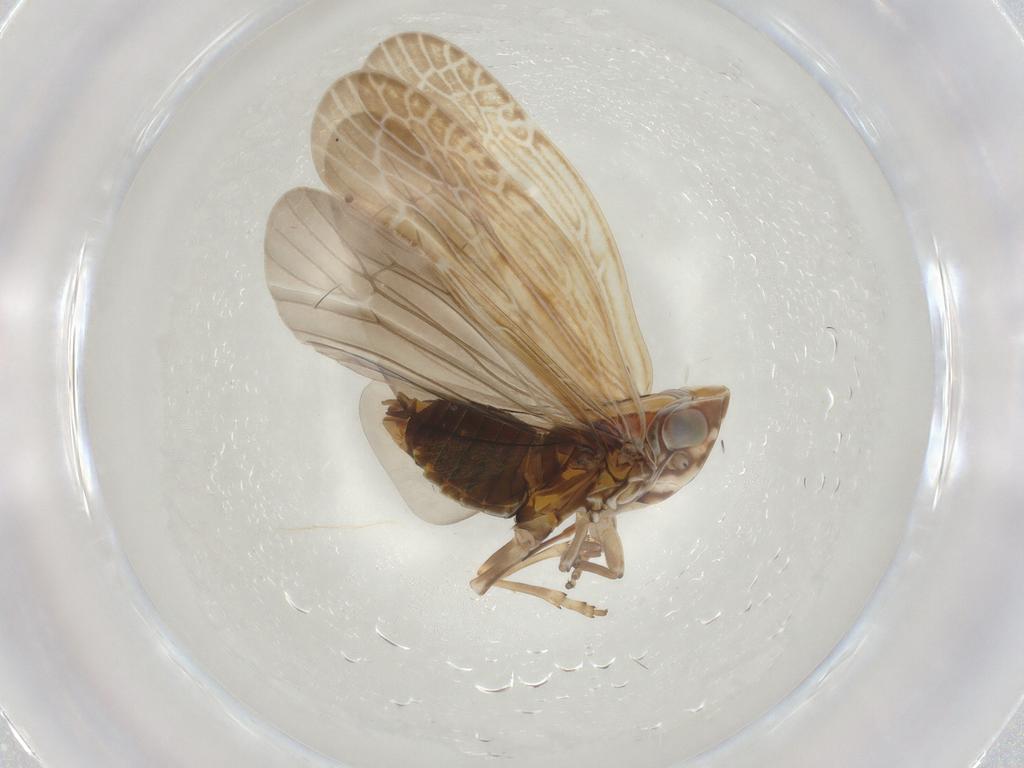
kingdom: Animalia
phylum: Arthropoda
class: Insecta
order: Hemiptera
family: Achilidae
